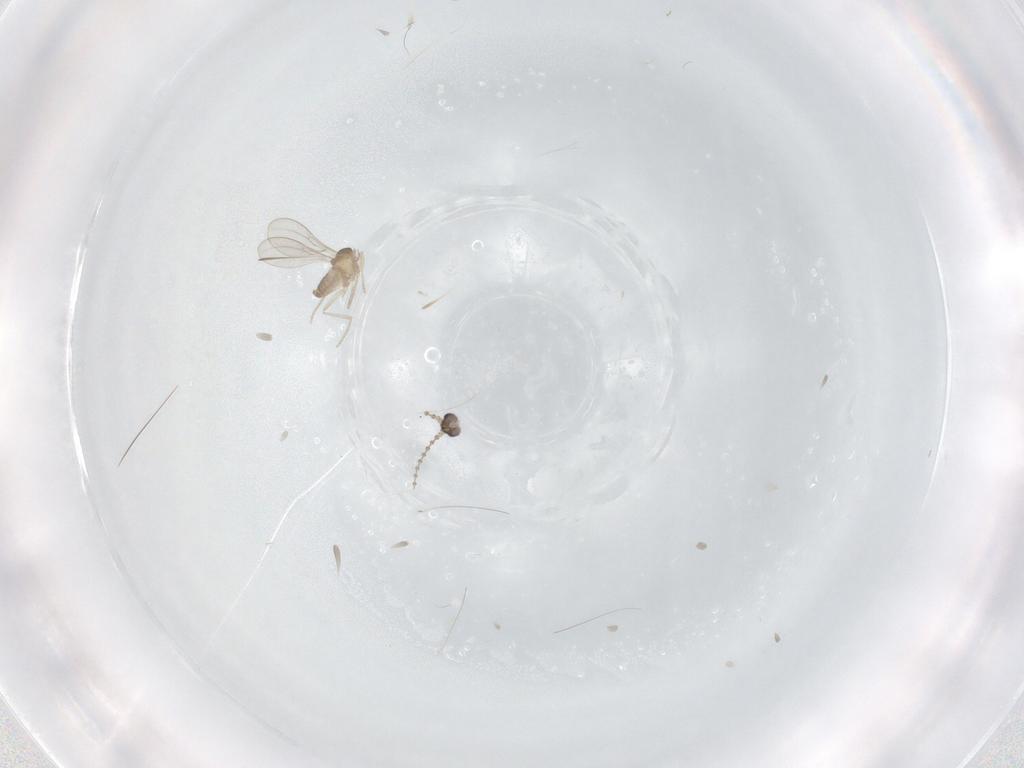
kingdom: Animalia
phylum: Arthropoda
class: Insecta
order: Diptera
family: Cecidomyiidae
